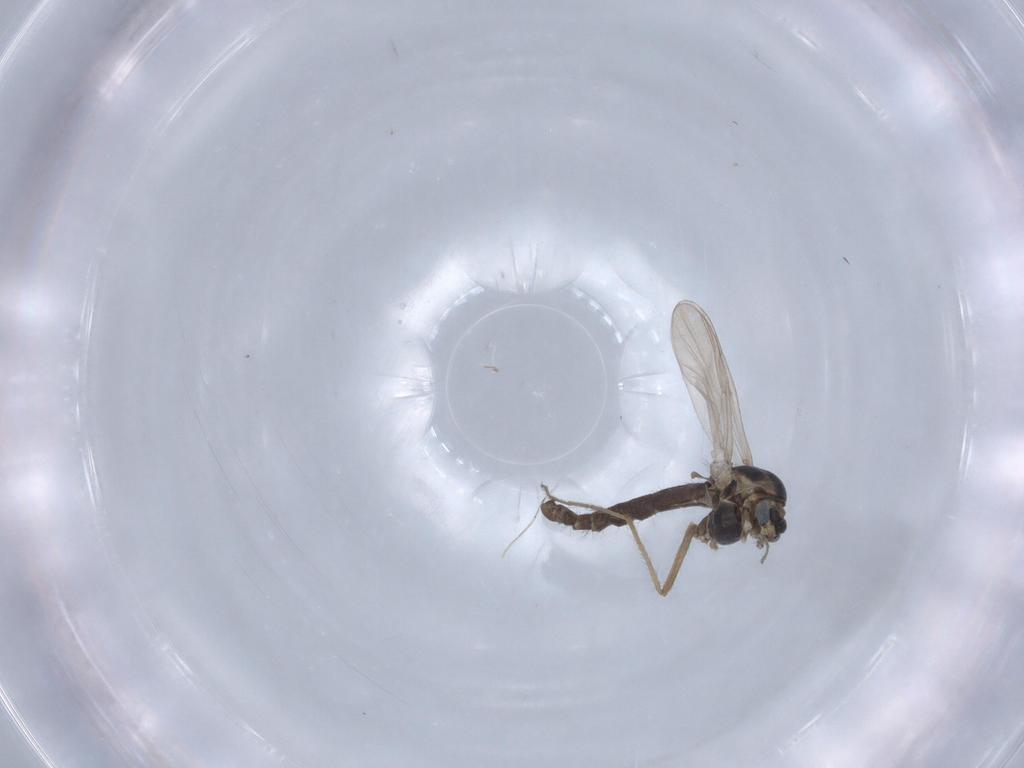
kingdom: Animalia
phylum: Arthropoda
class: Insecta
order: Diptera
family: Chironomidae
